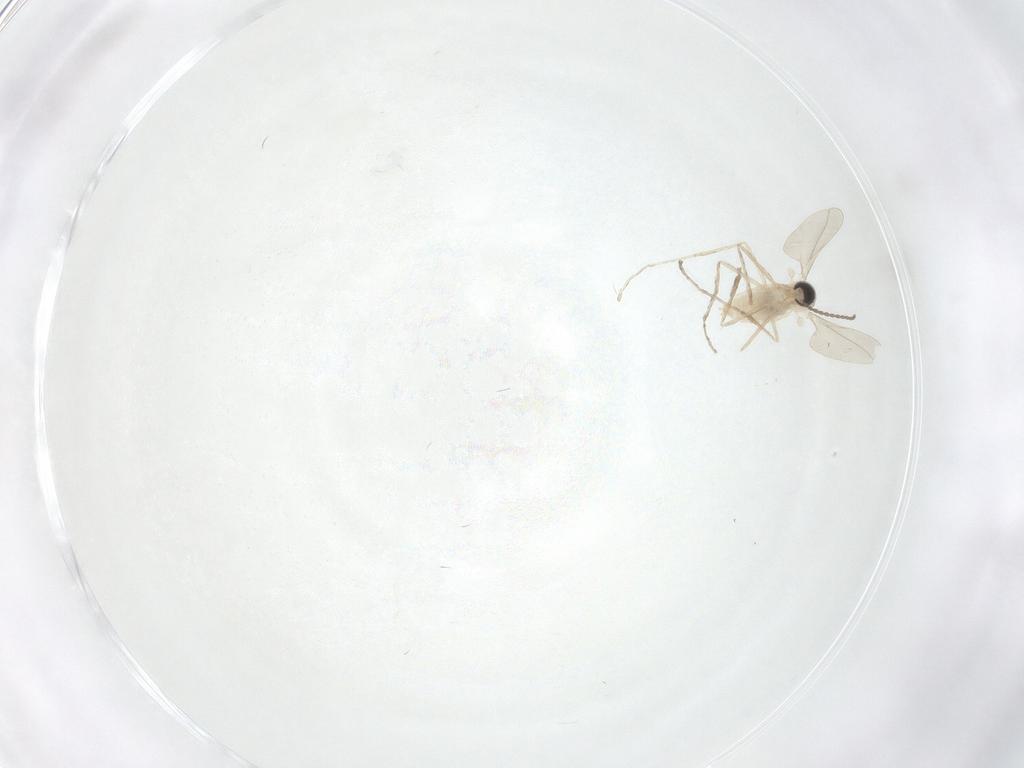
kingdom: Animalia
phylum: Arthropoda
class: Insecta
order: Diptera
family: Cecidomyiidae
